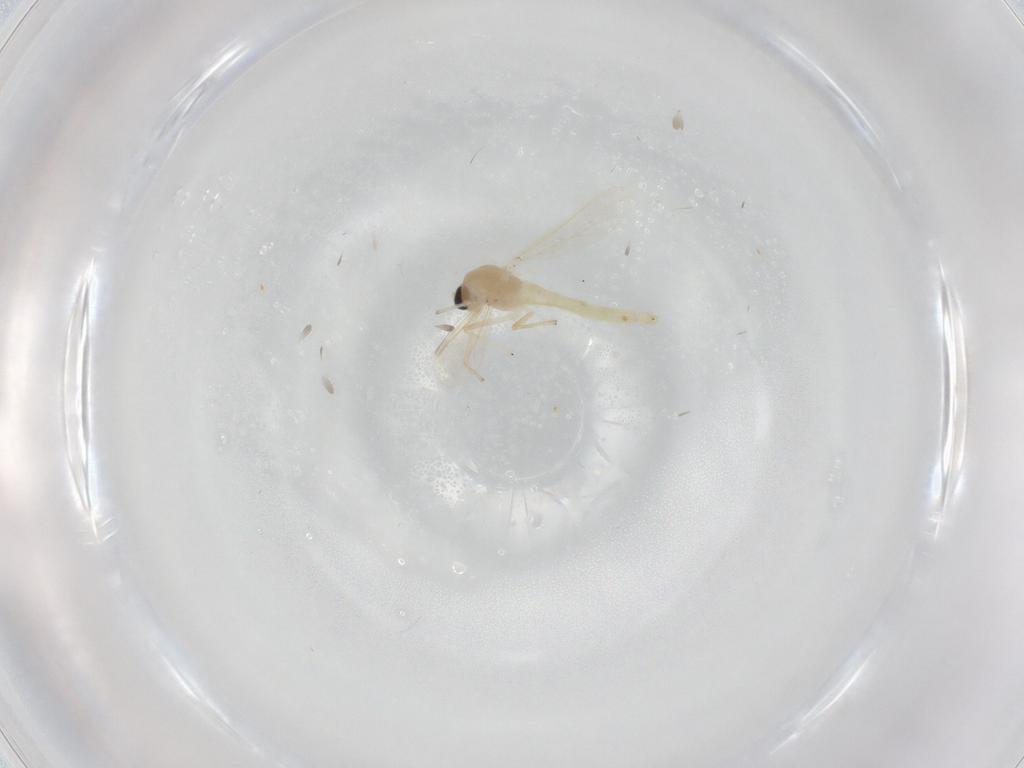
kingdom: Animalia
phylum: Arthropoda
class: Insecta
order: Diptera
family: Chironomidae
